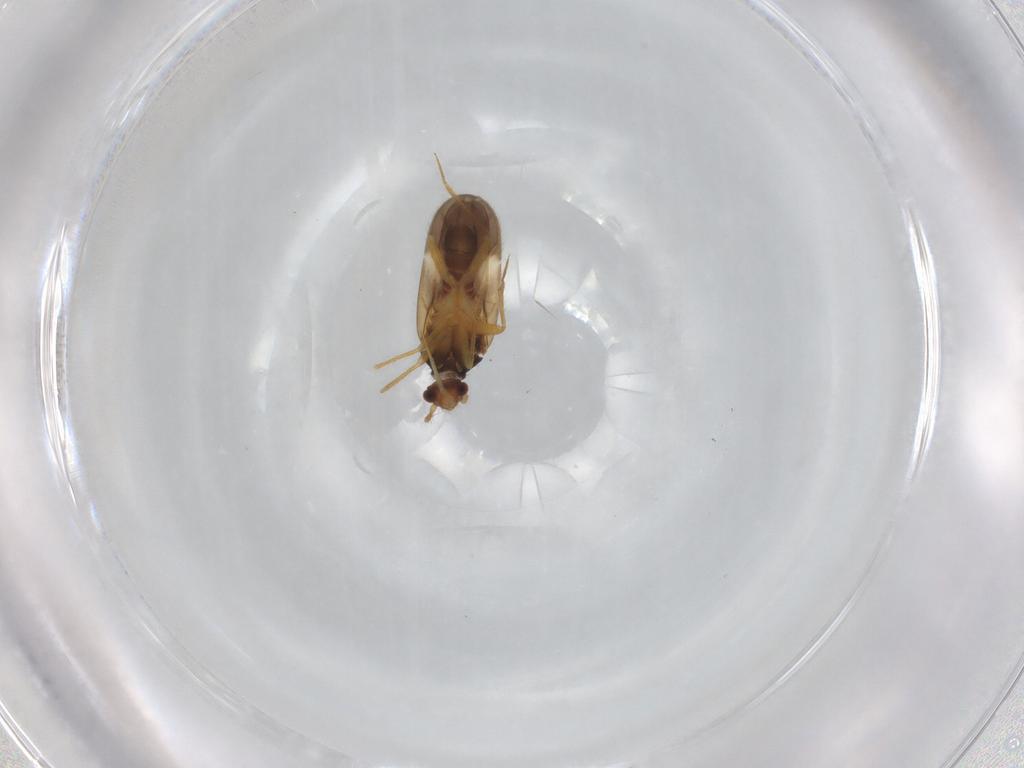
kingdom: Animalia
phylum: Arthropoda
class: Insecta
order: Hemiptera
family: Ceratocombidae
